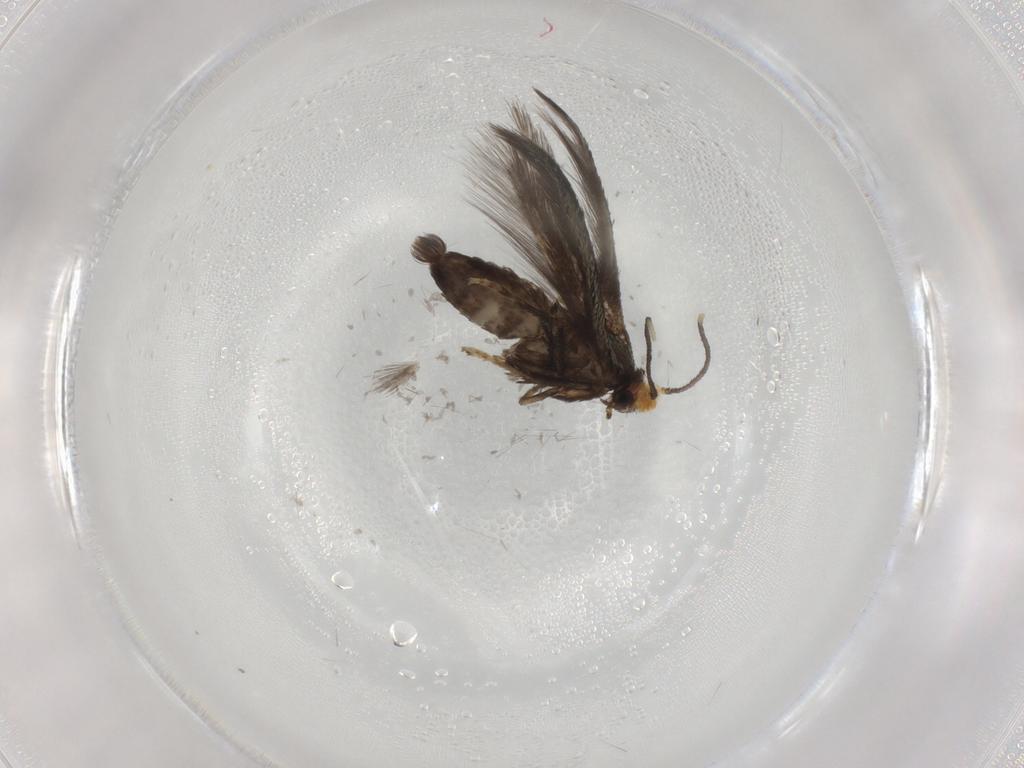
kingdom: Animalia
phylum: Arthropoda
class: Insecta
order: Lepidoptera
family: Nepticulidae
